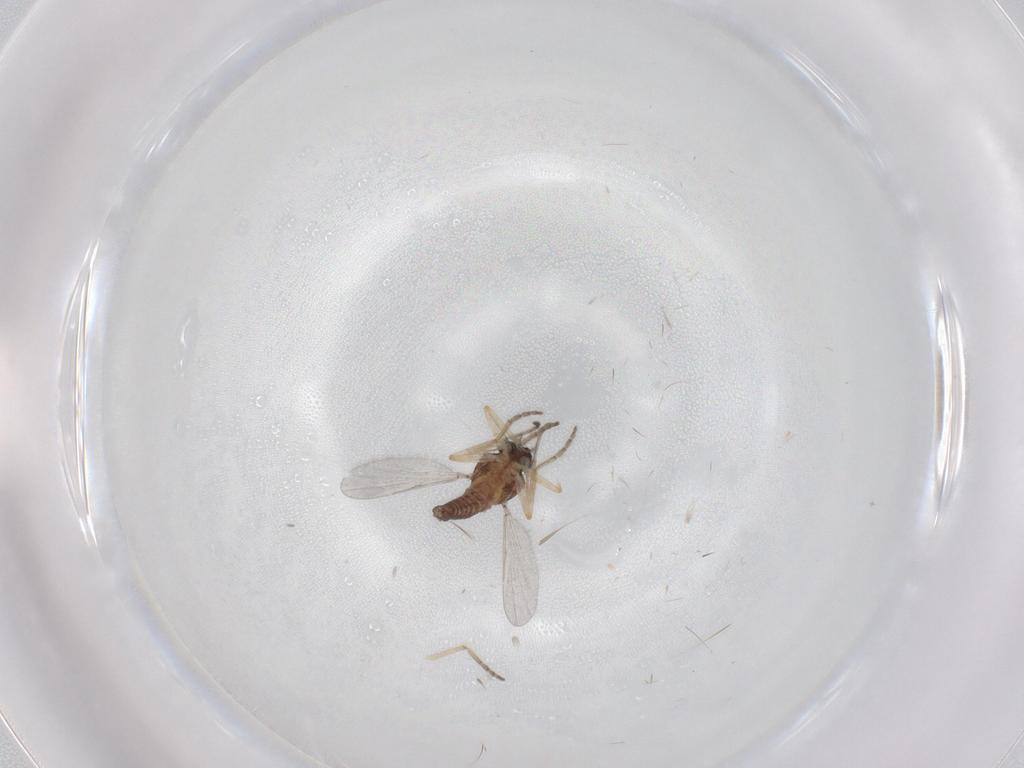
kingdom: Animalia
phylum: Arthropoda
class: Insecta
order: Diptera
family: Ceratopogonidae
